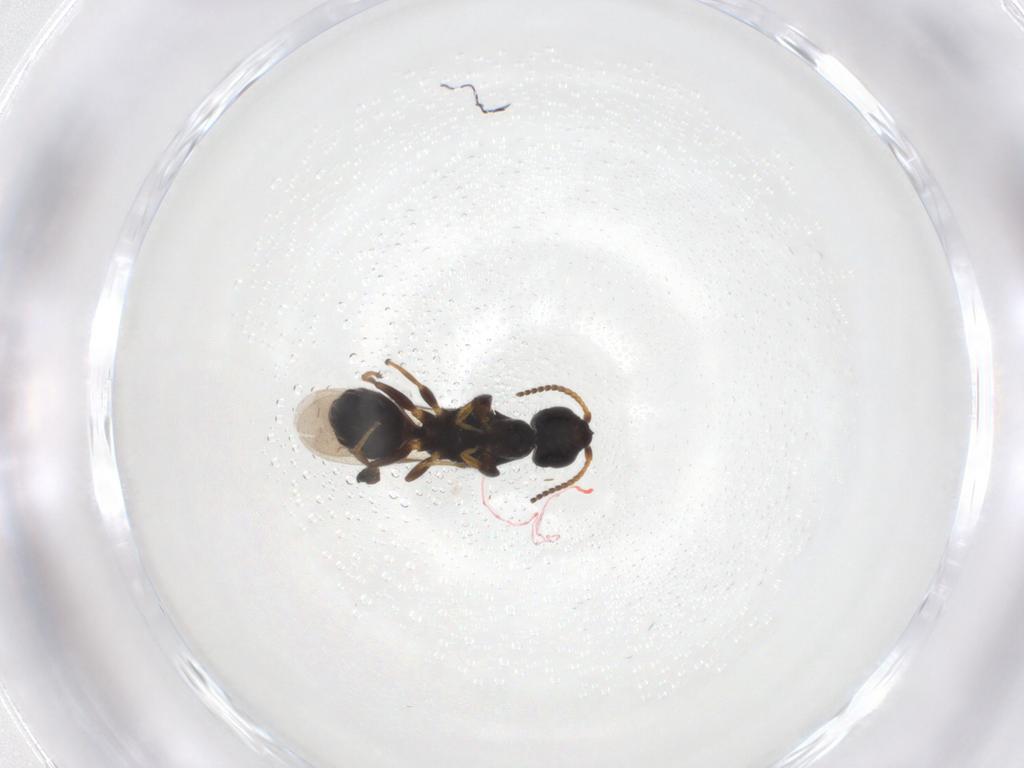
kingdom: Animalia
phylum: Arthropoda
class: Insecta
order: Hymenoptera
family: Bethylidae
